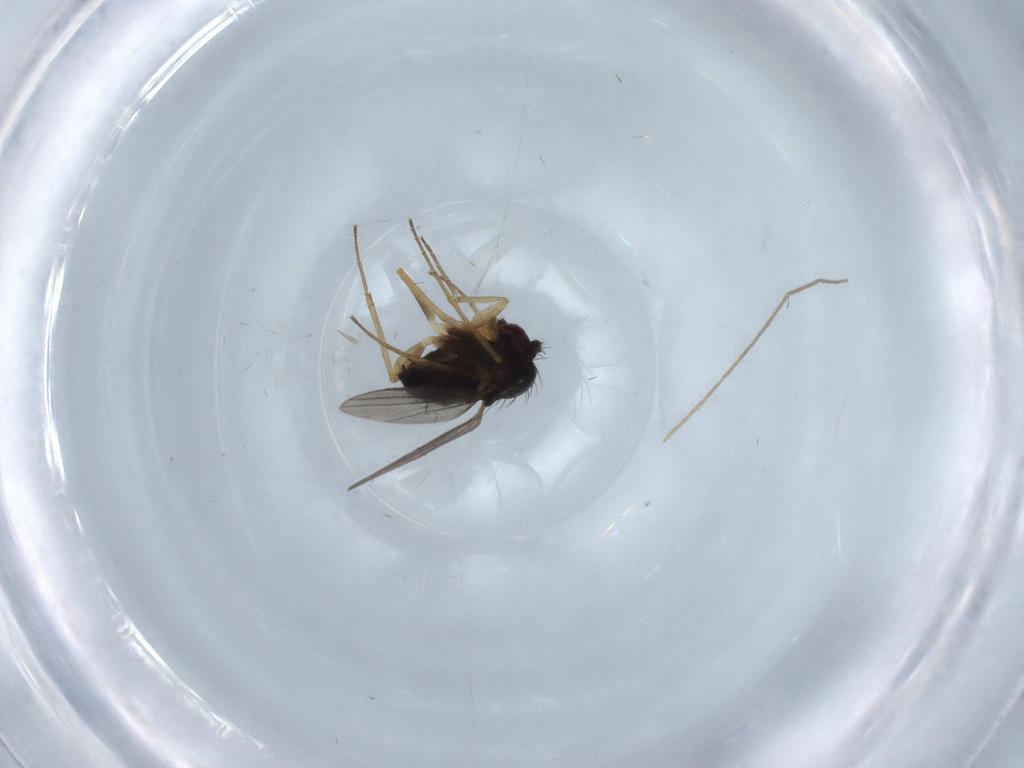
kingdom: Animalia
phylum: Arthropoda
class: Insecta
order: Diptera
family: Dolichopodidae
